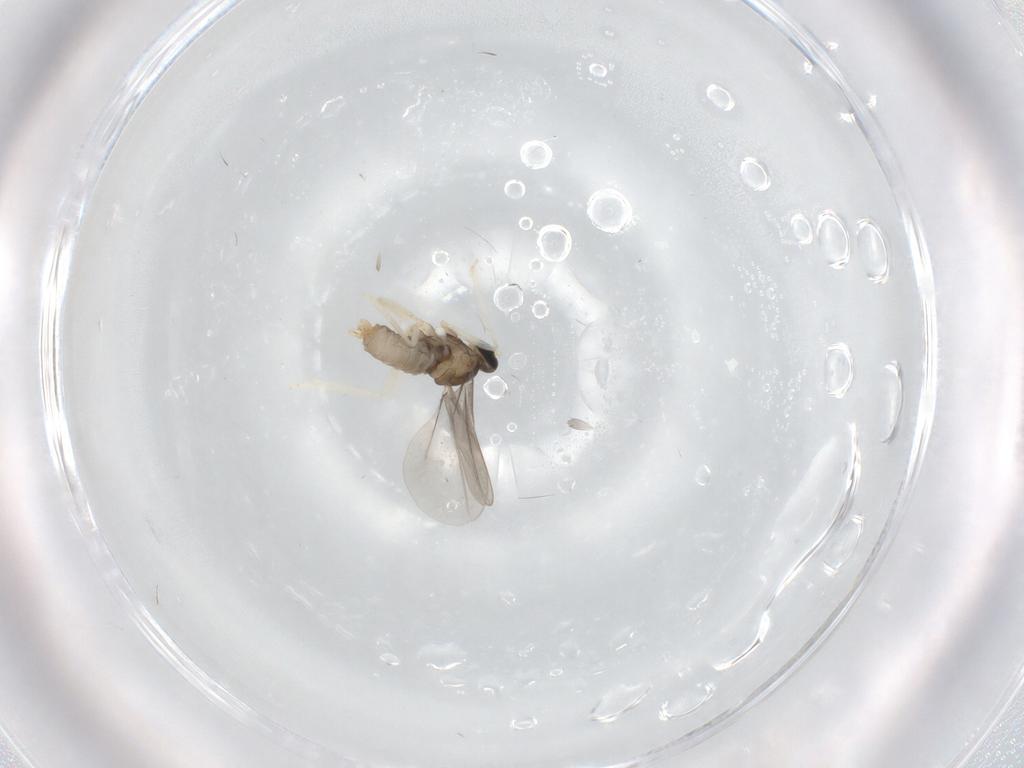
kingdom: Animalia
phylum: Arthropoda
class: Insecta
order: Diptera
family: Cecidomyiidae
